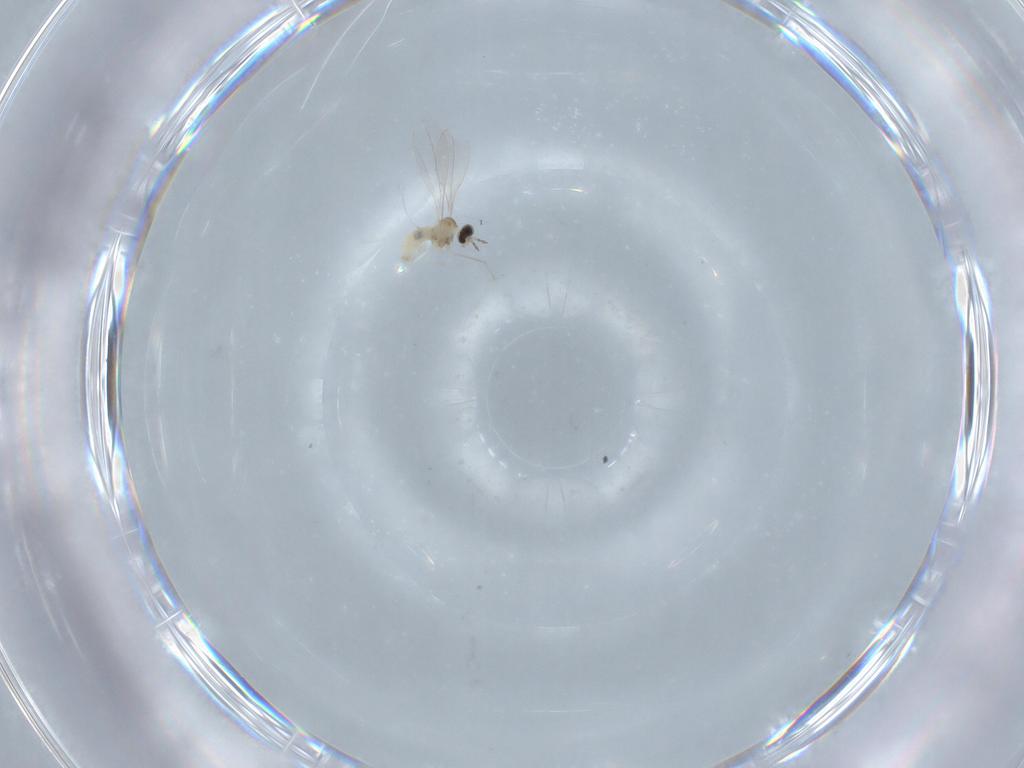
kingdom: Animalia
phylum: Arthropoda
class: Insecta
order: Diptera
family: Cecidomyiidae
